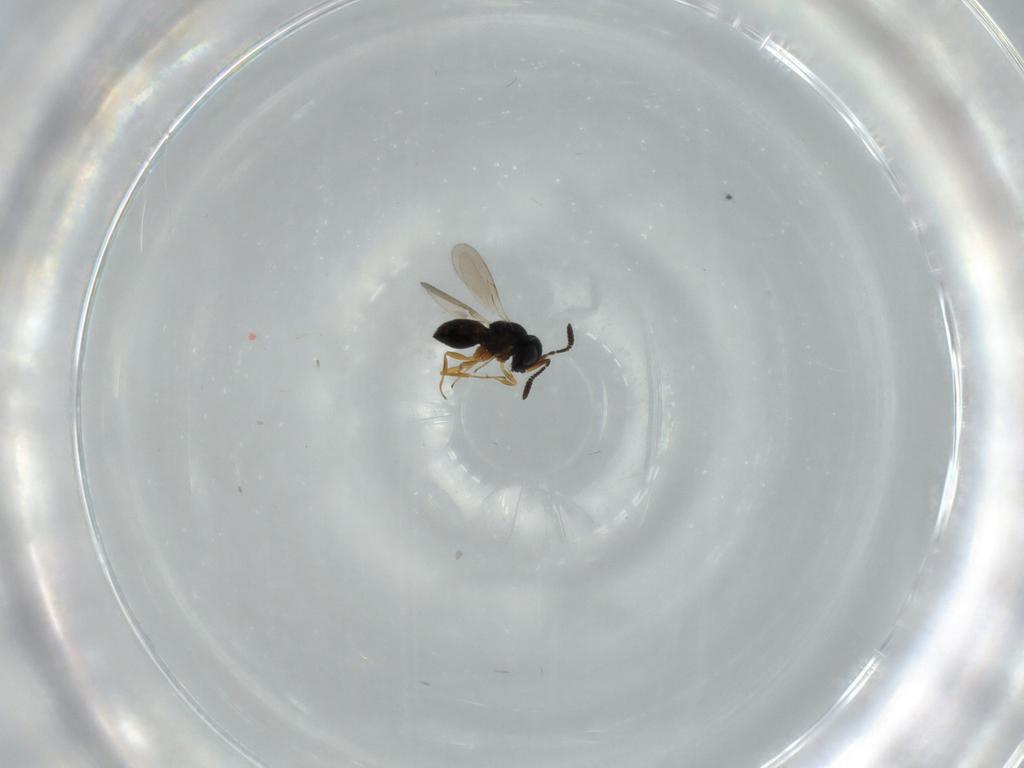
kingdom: Animalia
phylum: Arthropoda
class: Insecta
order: Hymenoptera
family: Scelionidae
